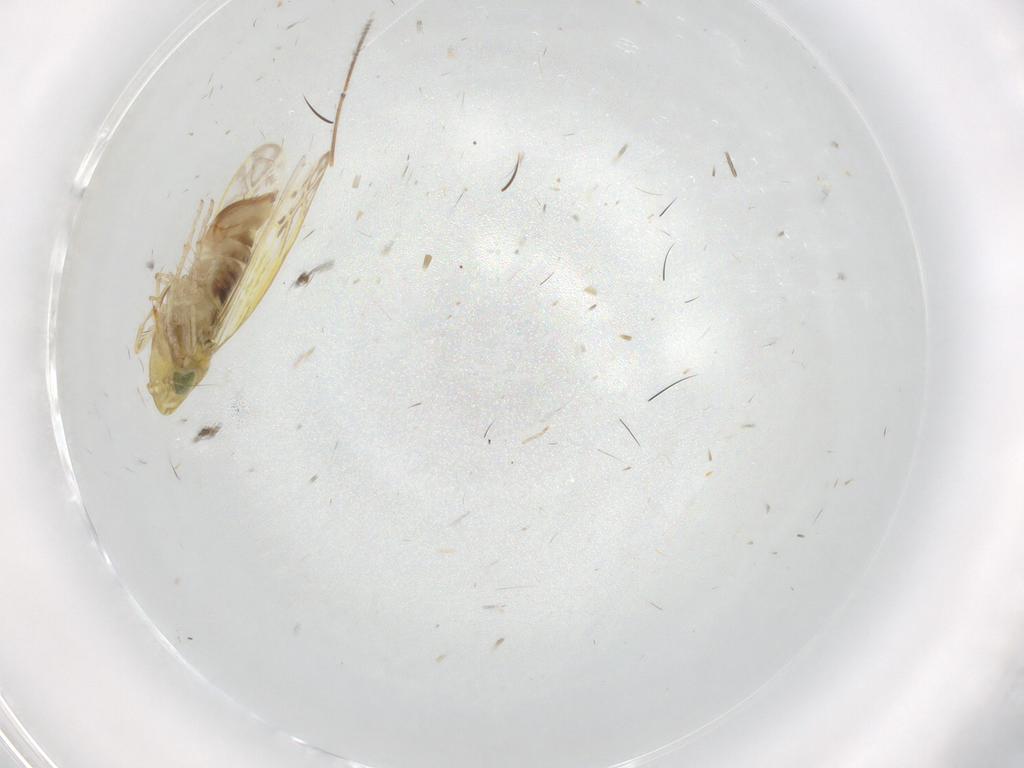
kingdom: Animalia
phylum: Arthropoda
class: Insecta
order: Hemiptera
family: Cicadellidae
